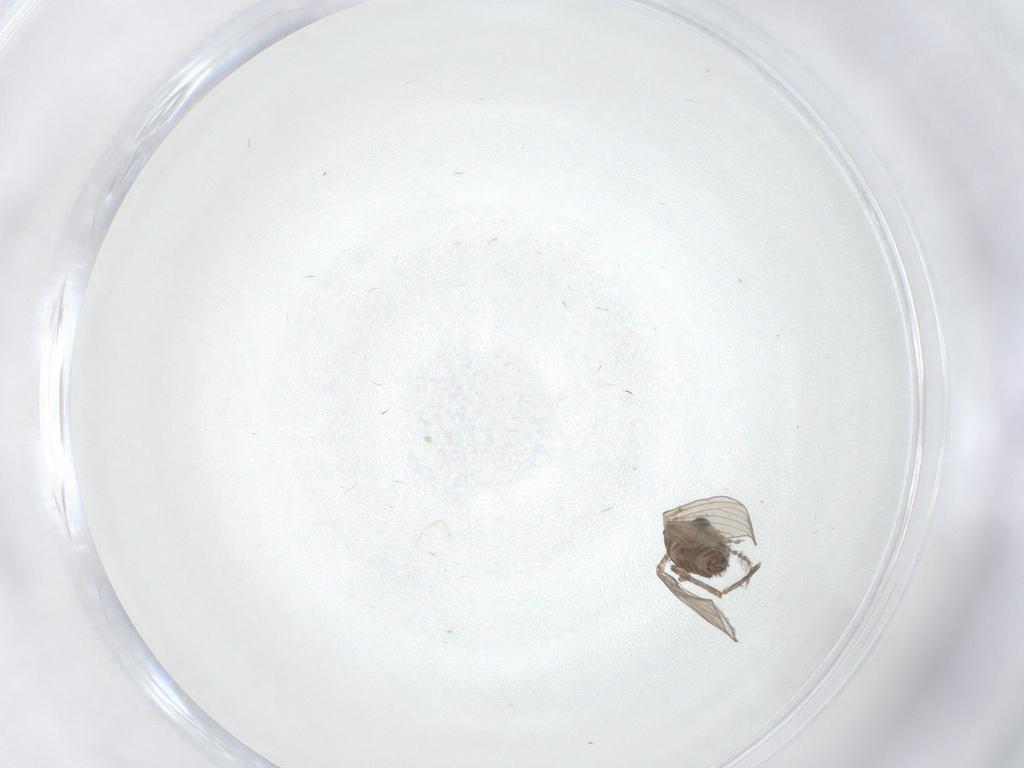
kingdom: Animalia
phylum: Arthropoda
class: Insecta
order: Diptera
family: Psychodidae
